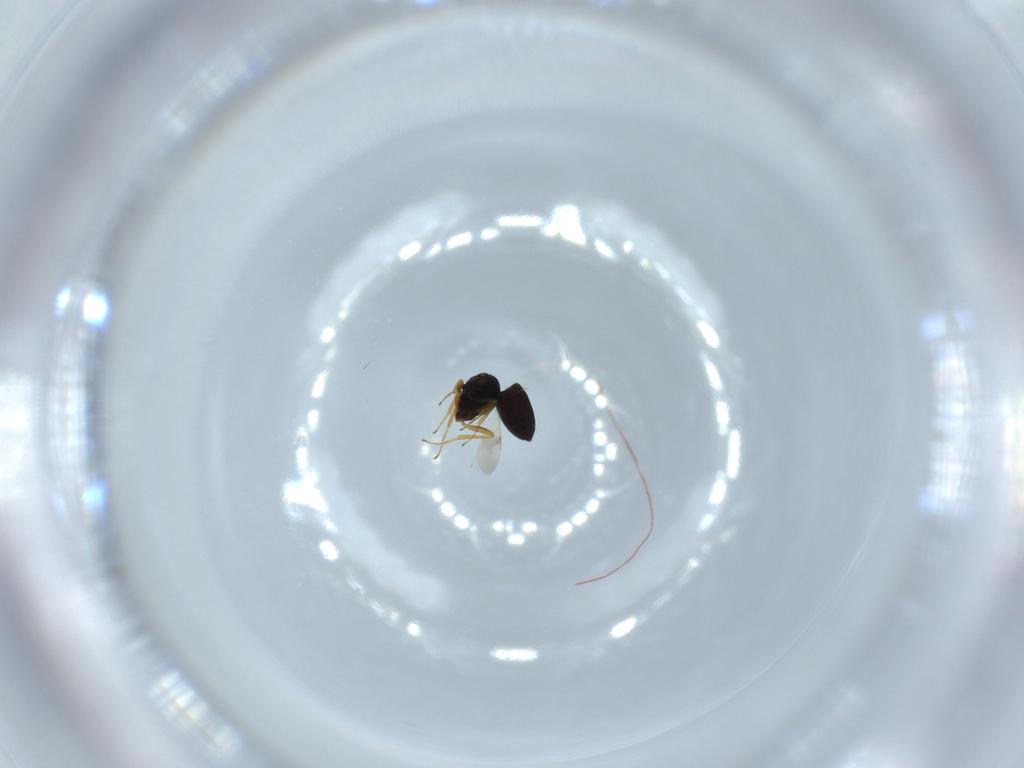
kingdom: Animalia
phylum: Arthropoda
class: Insecta
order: Hymenoptera
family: Scelionidae
